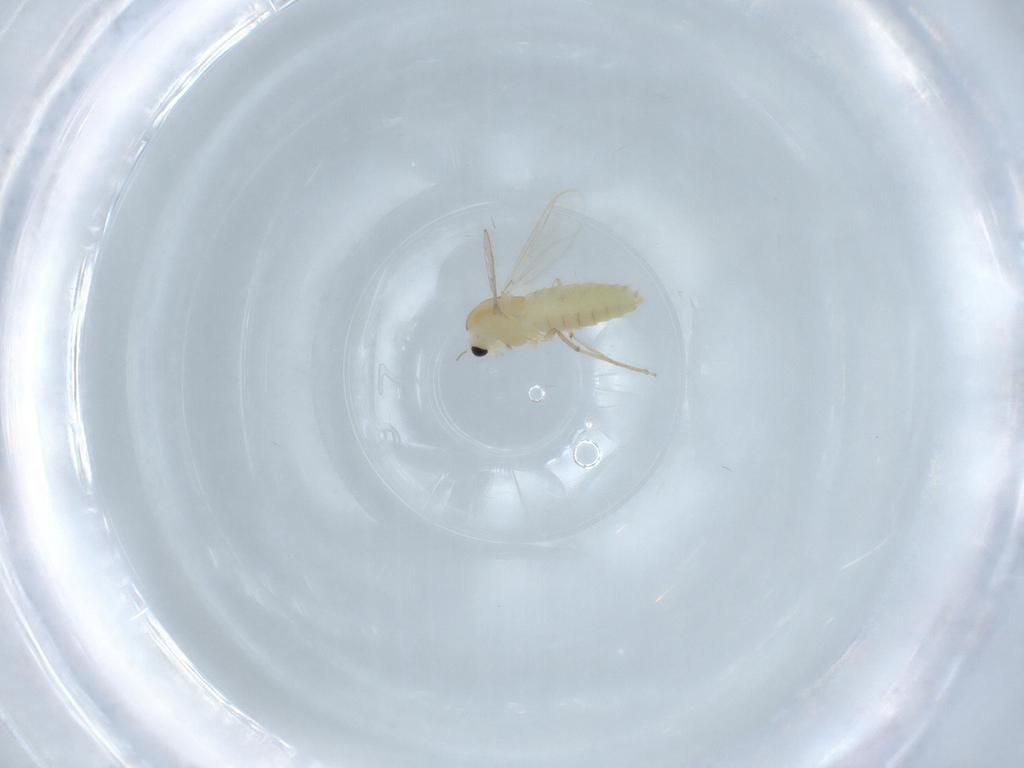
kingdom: Animalia
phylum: Arthropoda
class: Insecta
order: Diptera
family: Chironomidae
